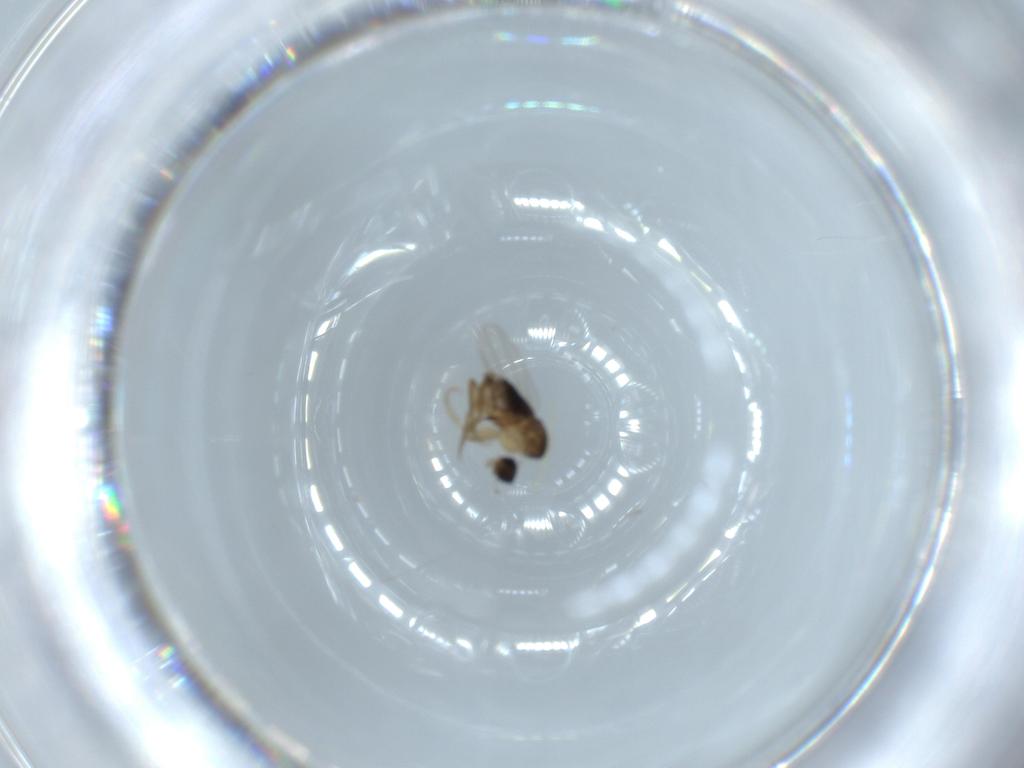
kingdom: Animalia
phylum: Arthropoda
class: Insecta
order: Diptera
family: Phoridae
